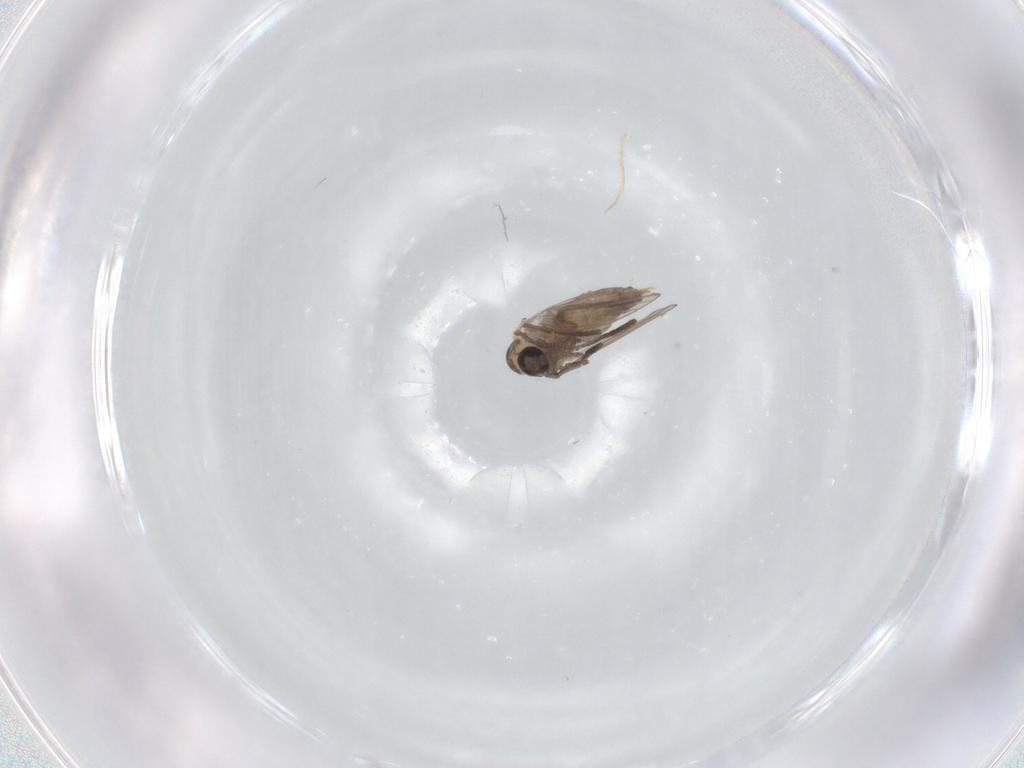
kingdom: Animalia
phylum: Arthropoda
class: Insecta
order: Diptera
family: Psychodidae
